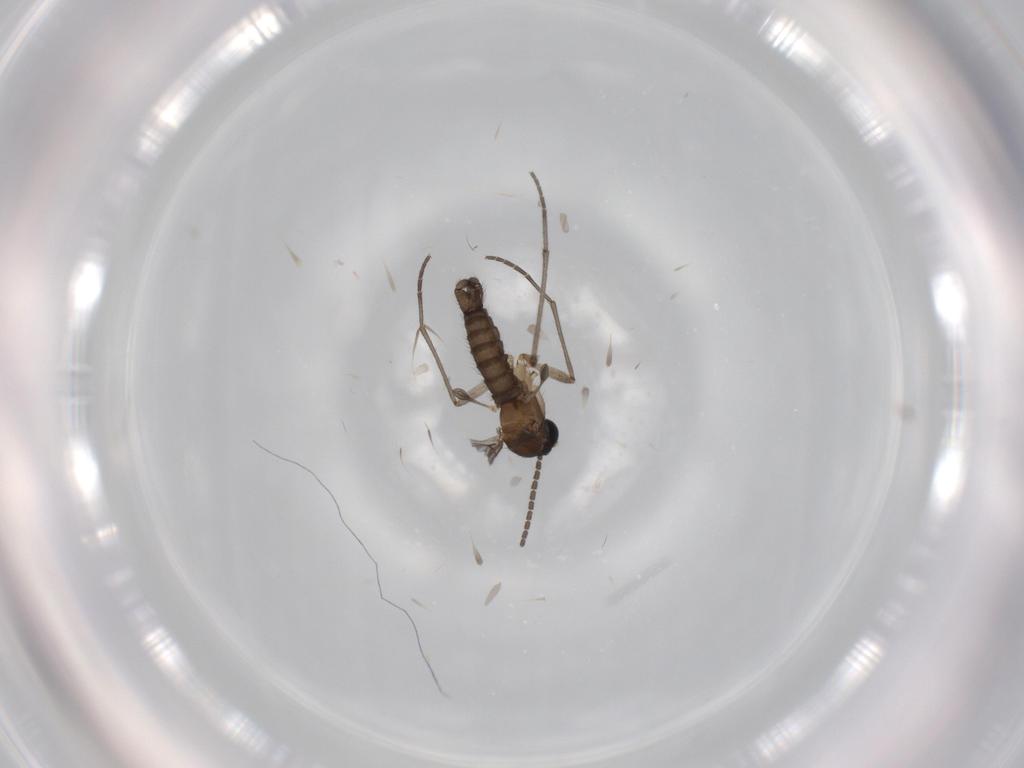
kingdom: Animalia
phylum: Arthropoda
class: Insecta
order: Diptera
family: Sciaridae
